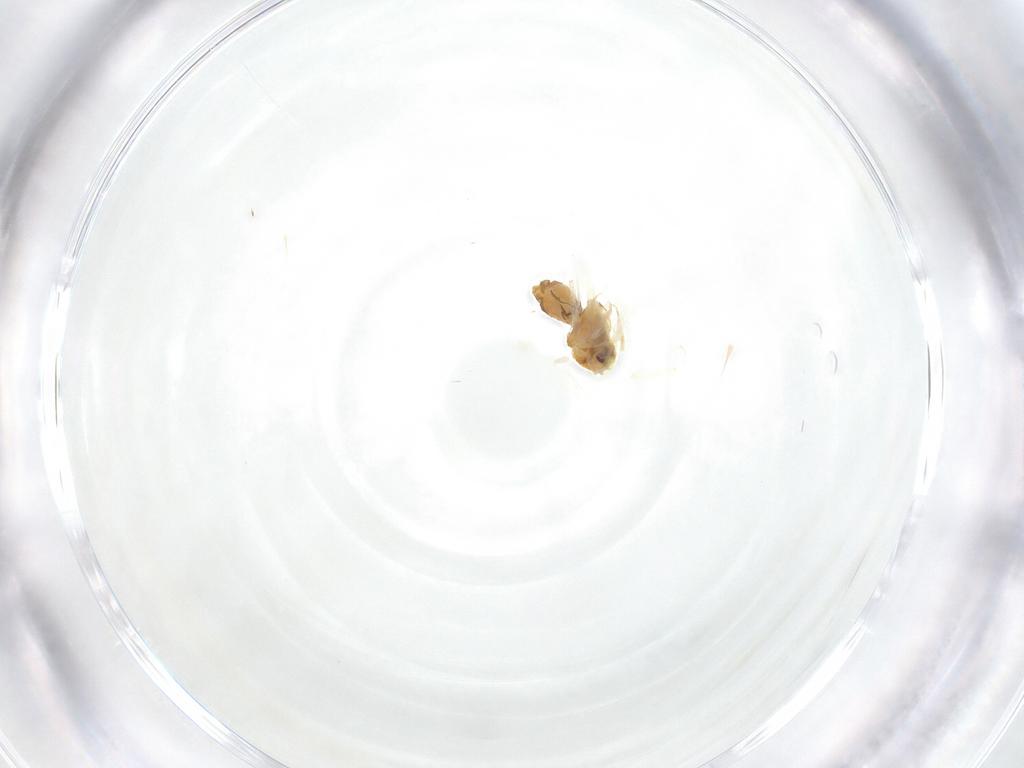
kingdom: Animalia
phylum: Arthropoda
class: Insecta
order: Hemiptera
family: Aleyrodidae
